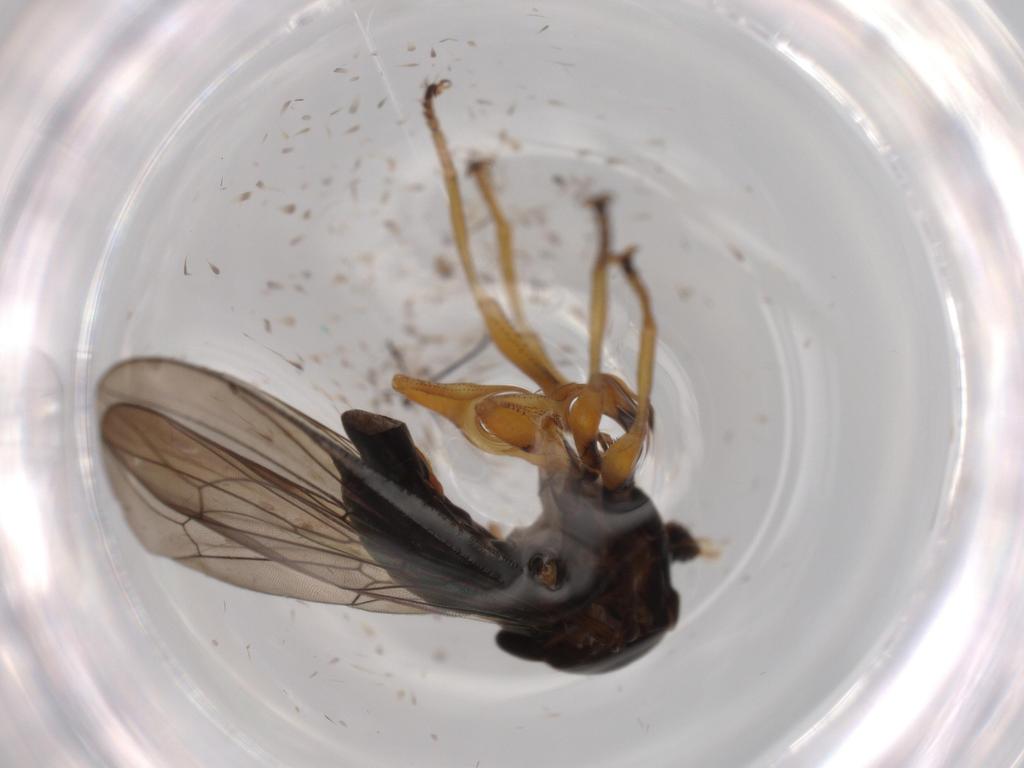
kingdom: Animalia
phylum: Arthropoda
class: Insecta
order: Diptera
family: Cecidomyiidae
